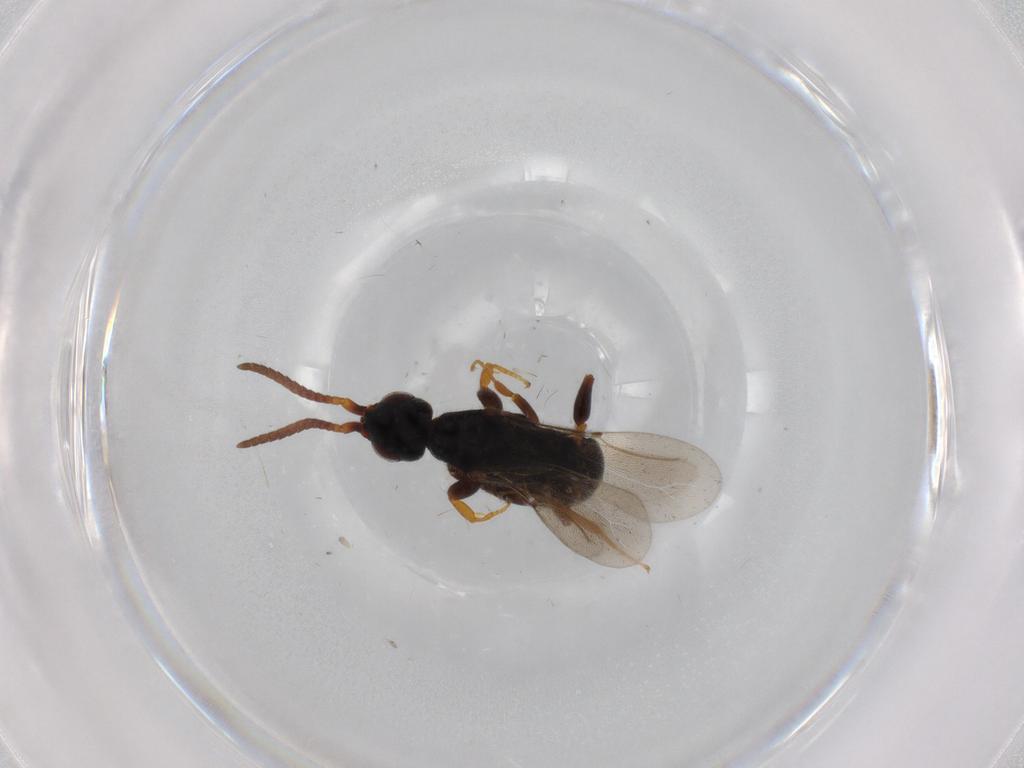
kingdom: Animalia
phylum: Arthropoda
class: Insecta
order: Hymenoptera
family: Bethylidae
